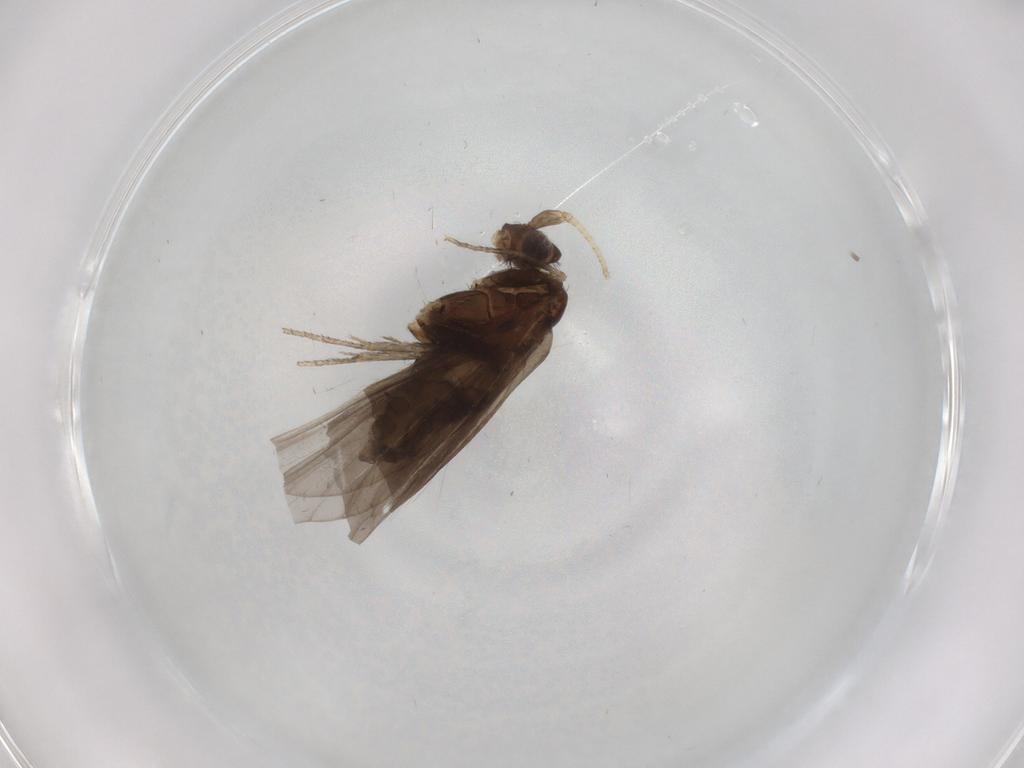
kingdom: Animalia
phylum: Arthropoda
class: Insecta
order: Trichoptera
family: Helicopsychidae
